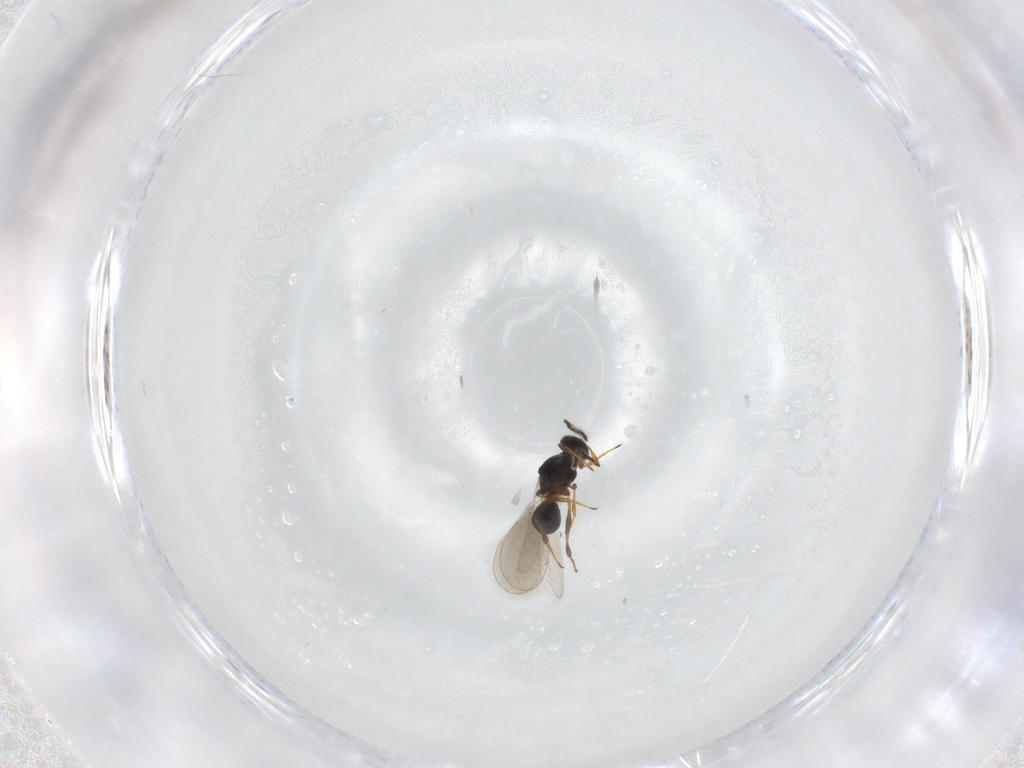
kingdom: Animalia
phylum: Arthropoda
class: Insecta
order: Hymenoptera
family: Platygastridae
